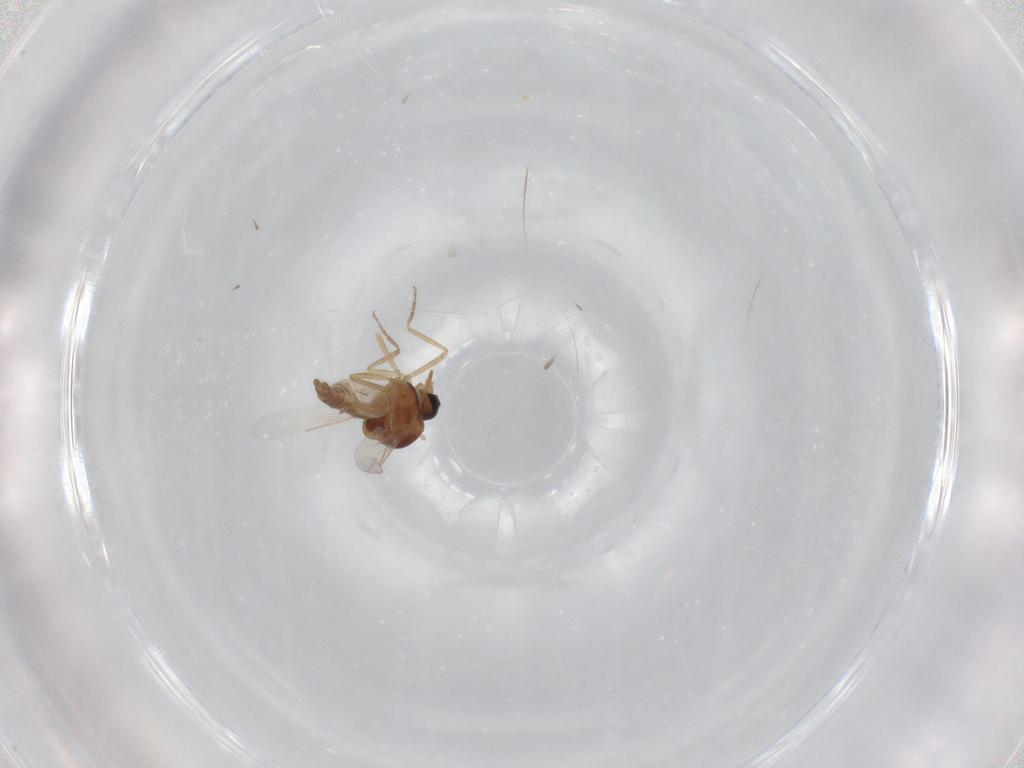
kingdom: Animalia
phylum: Arthropoda
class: Insecta
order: Diptera
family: Ceratopogonidae
